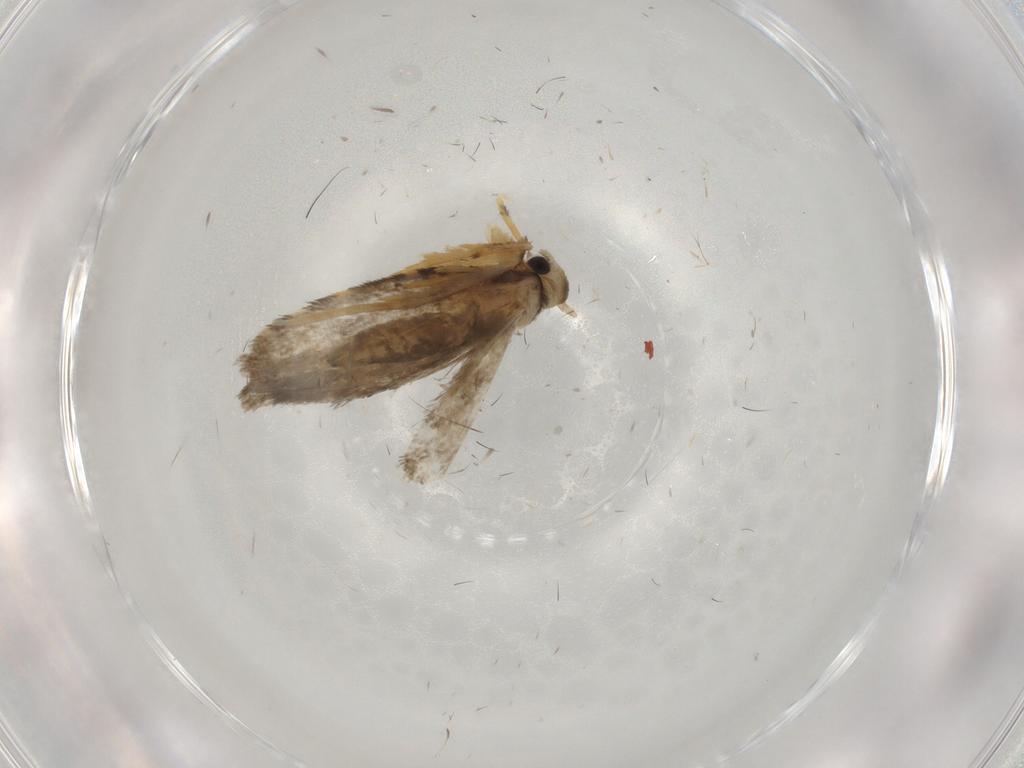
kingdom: Animalia
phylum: Arthropoda
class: Insecta
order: Lepidoptera
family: Psychidae
